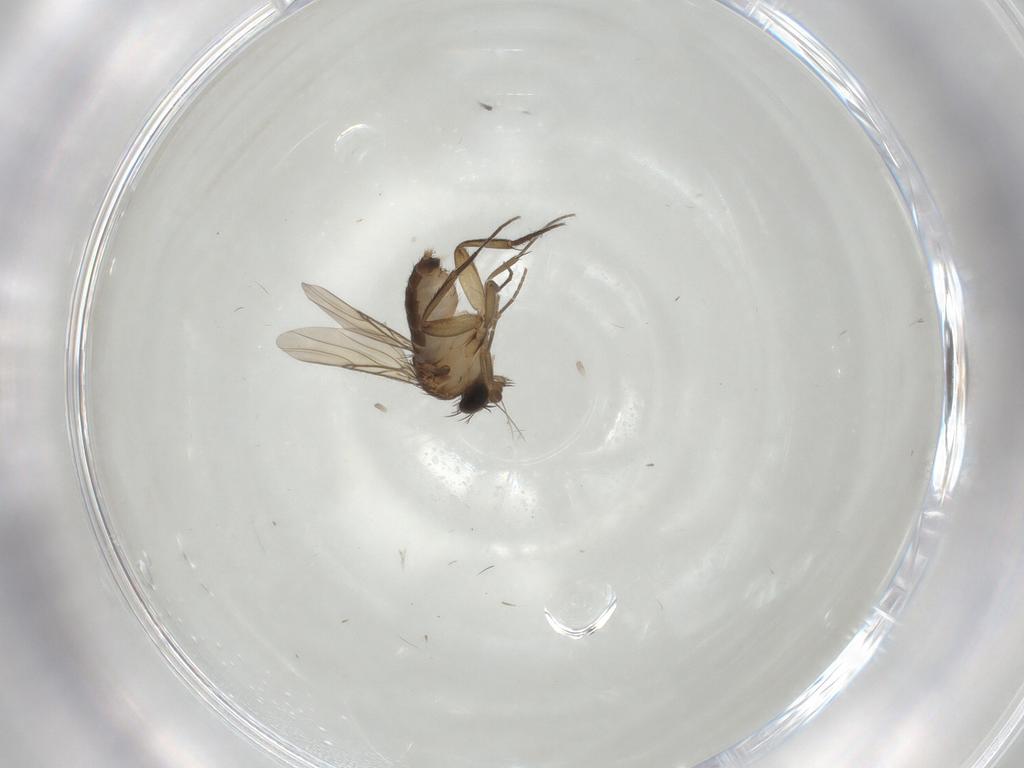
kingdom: Animalia
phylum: Arthropoda
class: Insecta
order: Diptera
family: Phoridae
